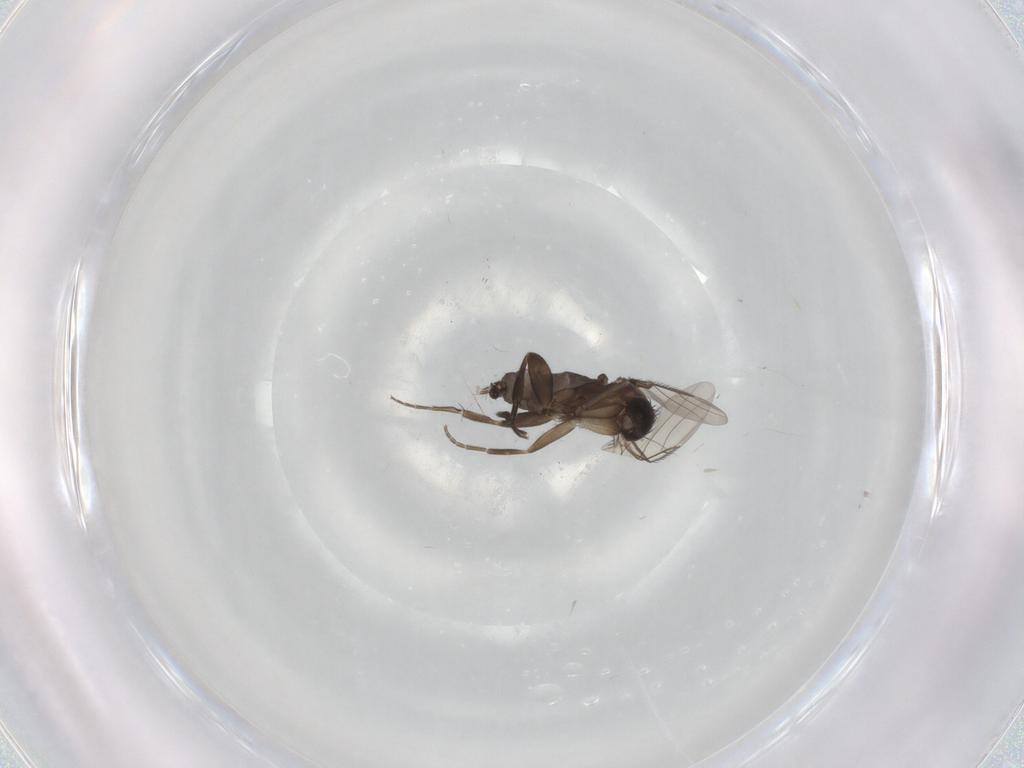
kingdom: Animalia
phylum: Arthropoda
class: Insecta
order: Diptera
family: Phoridae
